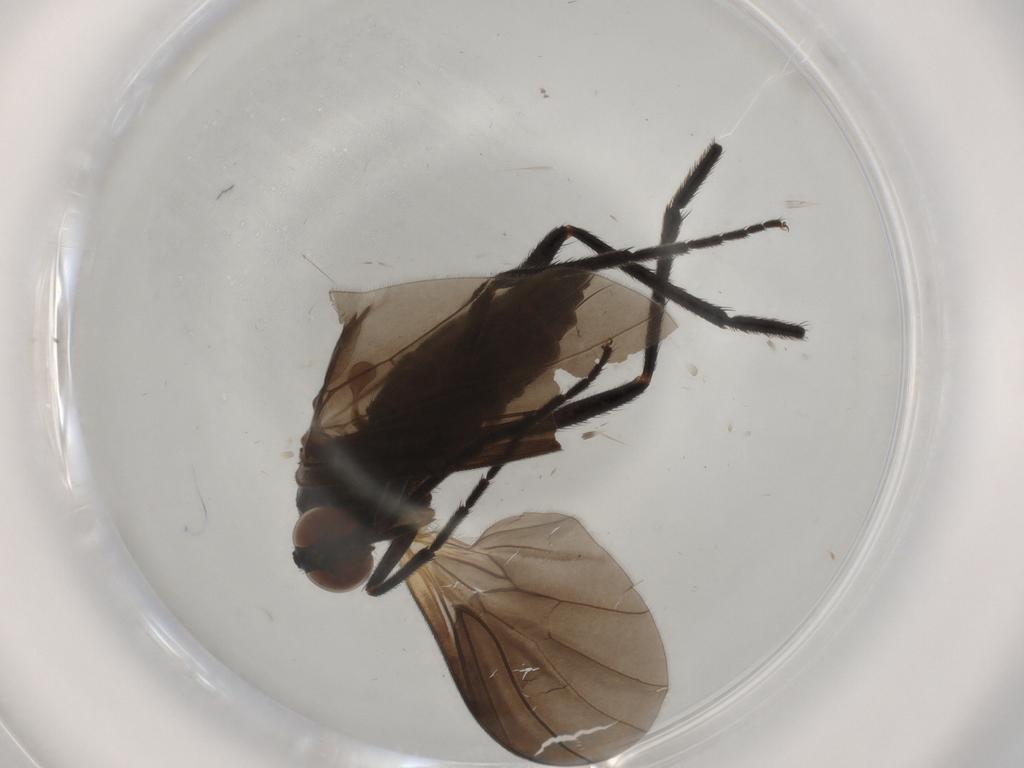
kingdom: Animalia
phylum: Arthropoda
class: Insecta
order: Diptera
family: Empididae
